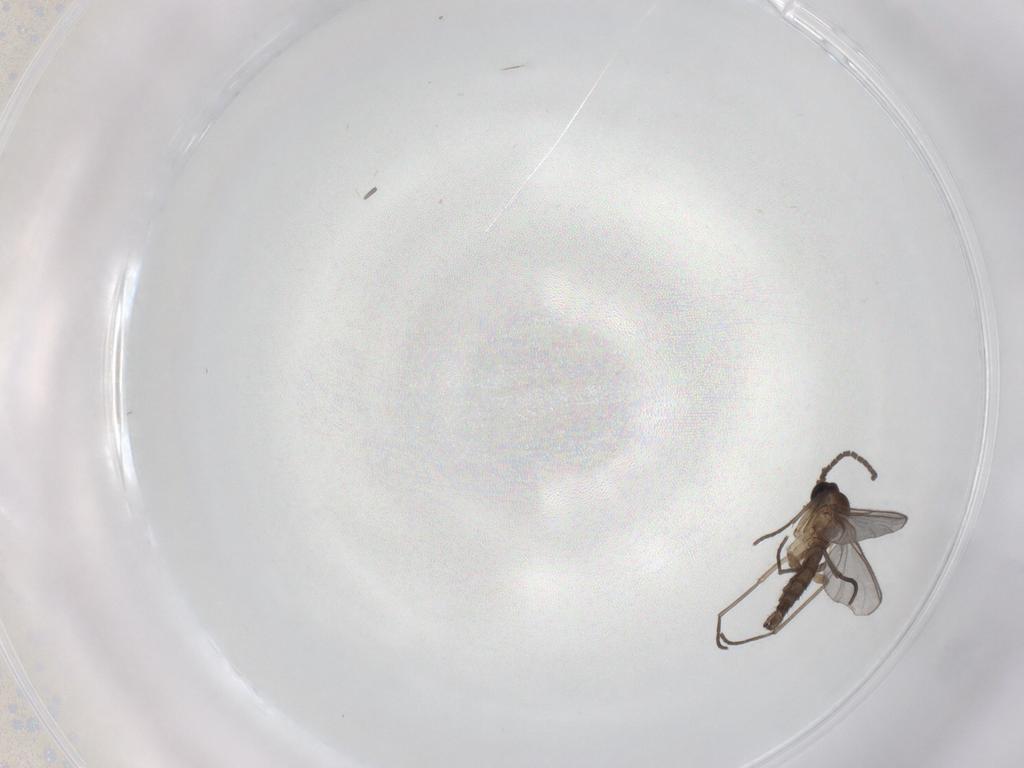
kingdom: Animalia
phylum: Arthropoda
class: Insecta
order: Diptera
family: Sciaridae
